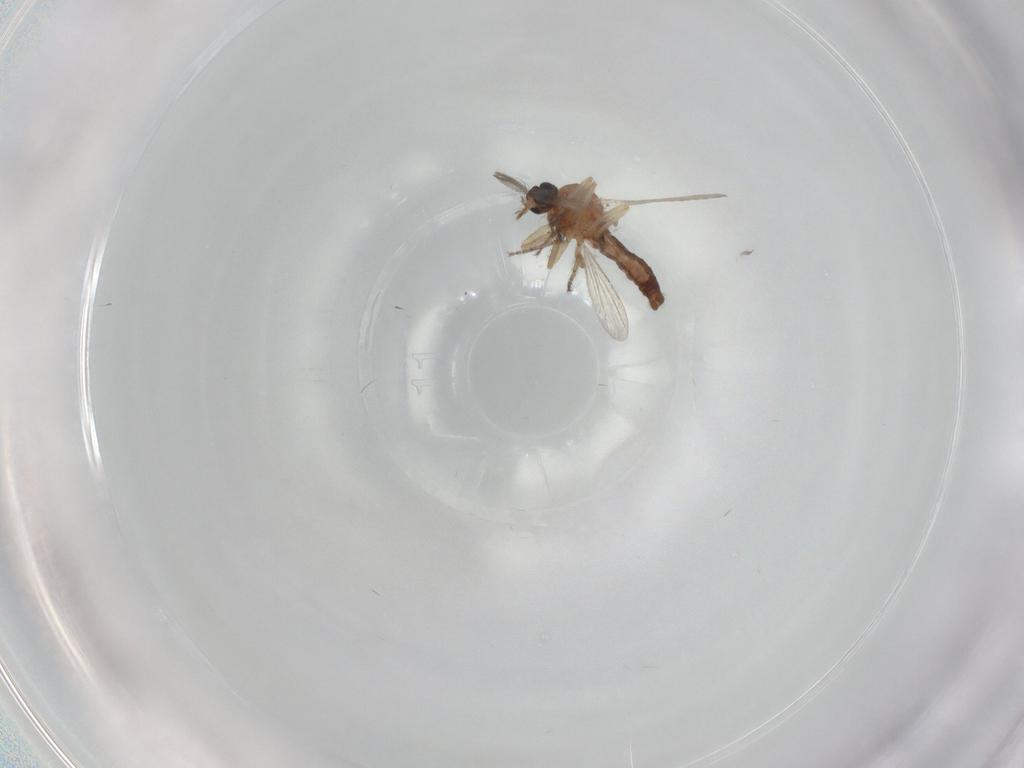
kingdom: Animalia
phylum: Arthropoda
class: Insecta
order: Diptera
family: Ceratopogonidae
